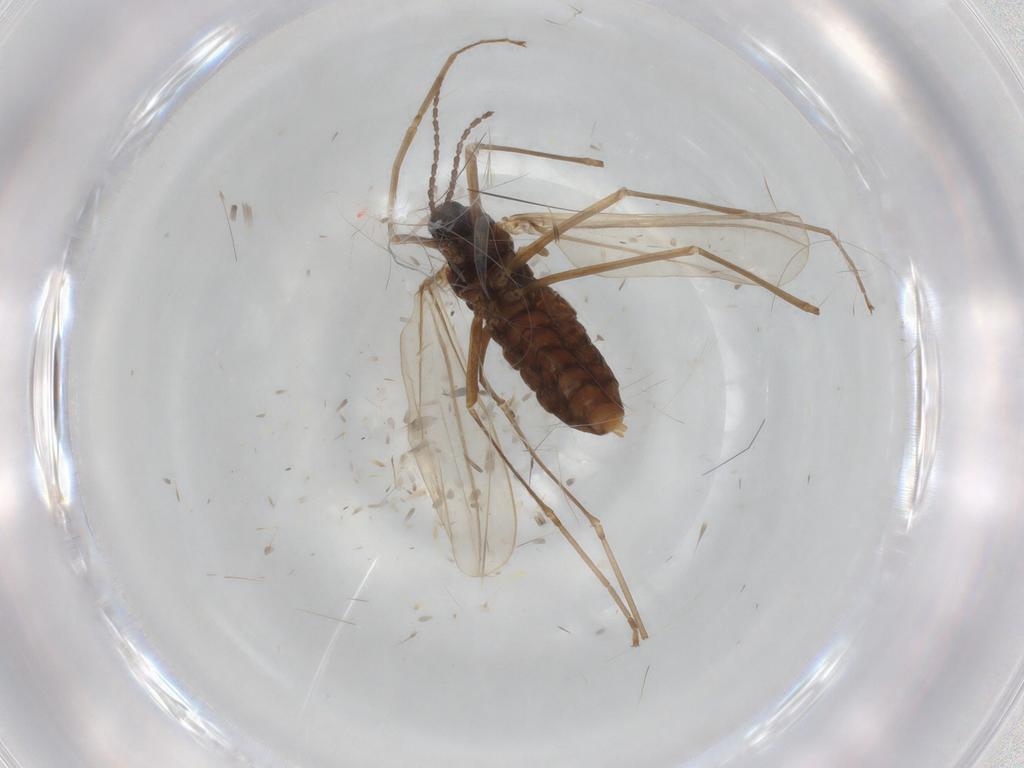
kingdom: Animalia
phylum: Arthropoda
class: Insecta
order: Diptera
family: Cecidomyiidae
